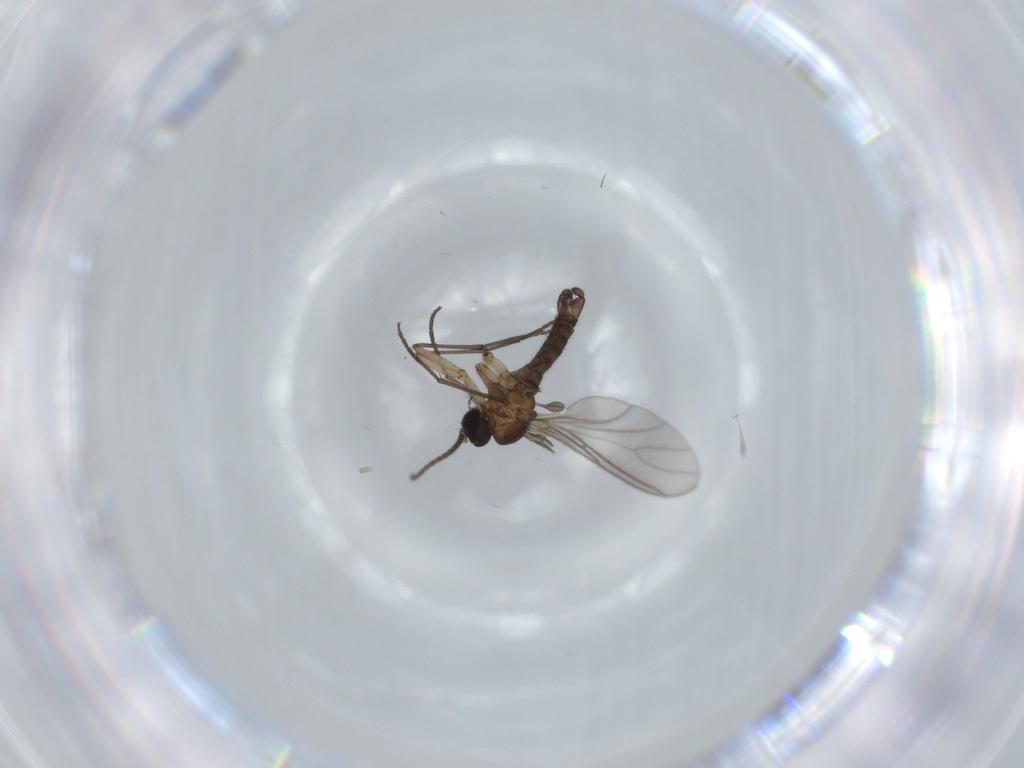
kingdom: Animalia
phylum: Arthropoda
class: Insecta
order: Diptera
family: Sciaridae
